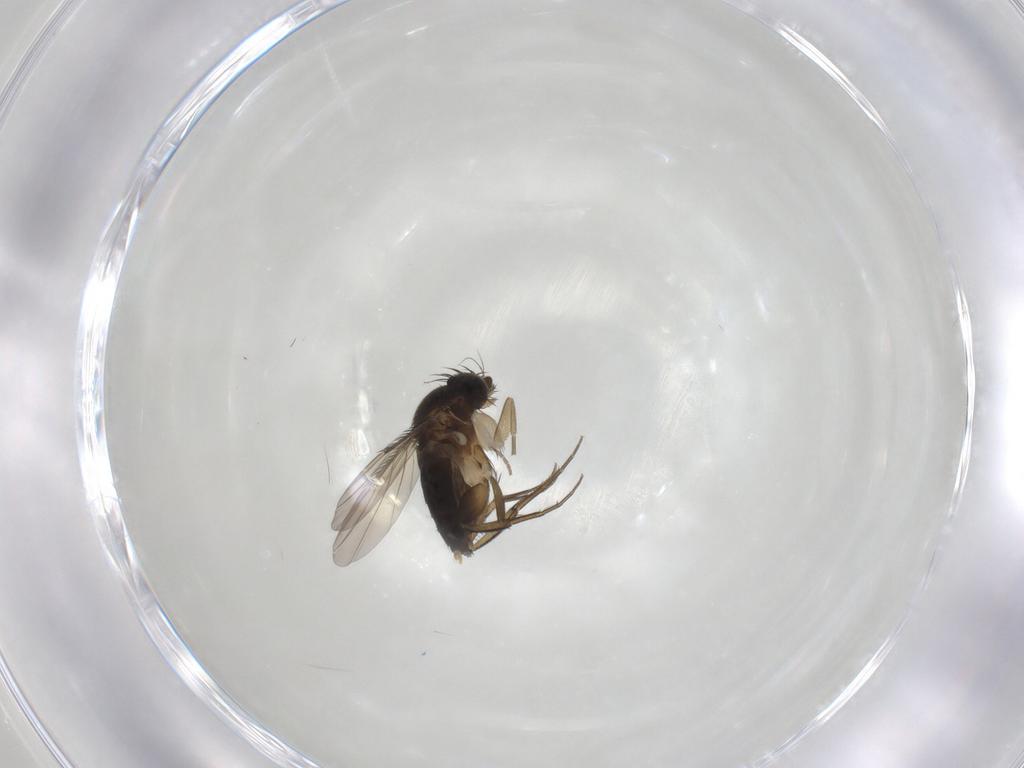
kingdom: Animalia
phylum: Arthropoda
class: Insecta
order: Diptera
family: Phoridae
